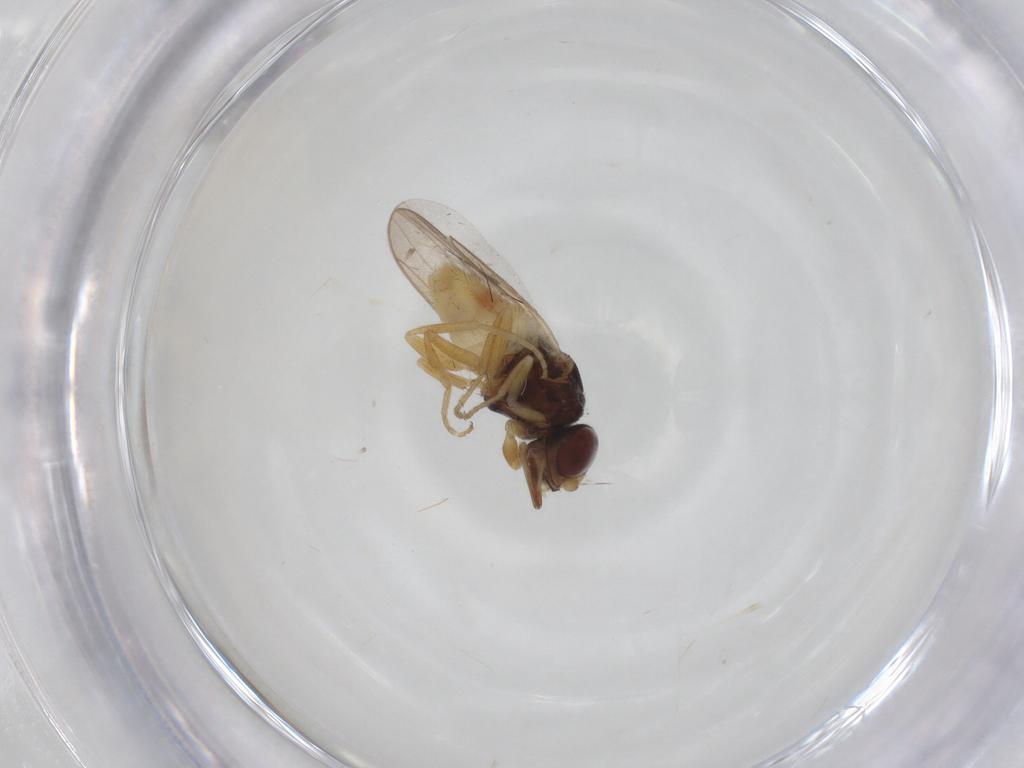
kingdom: Animalia
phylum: Arthropoda
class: Insecta
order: Diptera
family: Chloropidae
